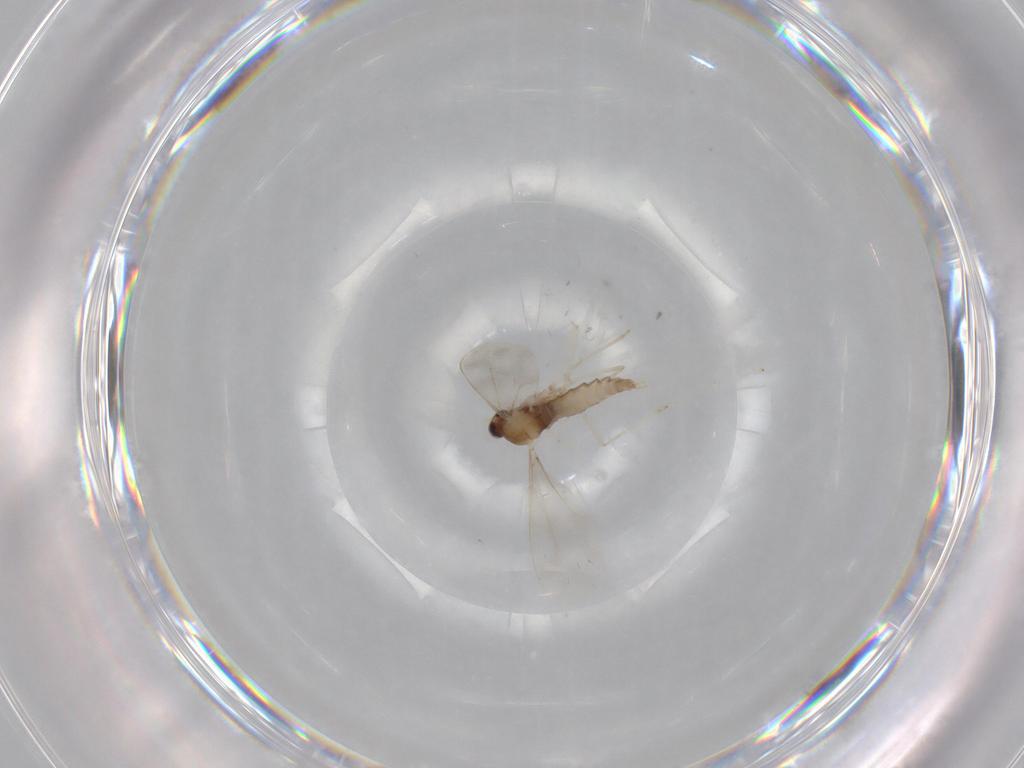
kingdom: Animalia
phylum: Arthropoda
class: Insecta
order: Diptera
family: Cecidomyiidae
